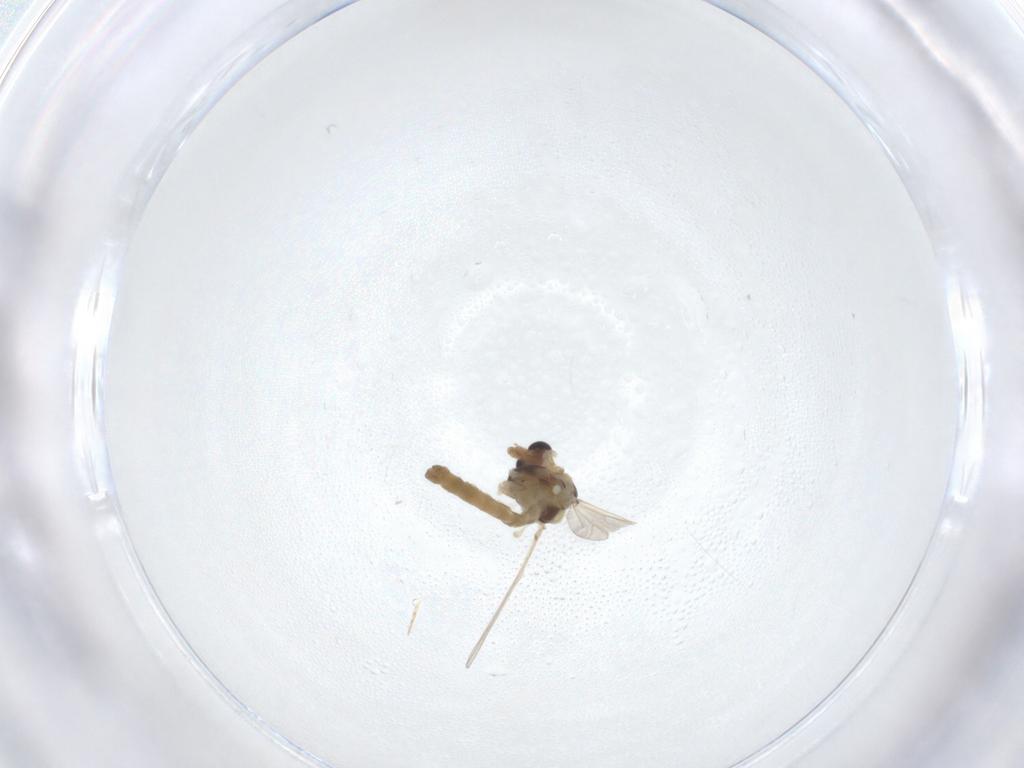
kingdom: Animalia
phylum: Arthropoda
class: Insecta
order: Diptera
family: Chironomidae
